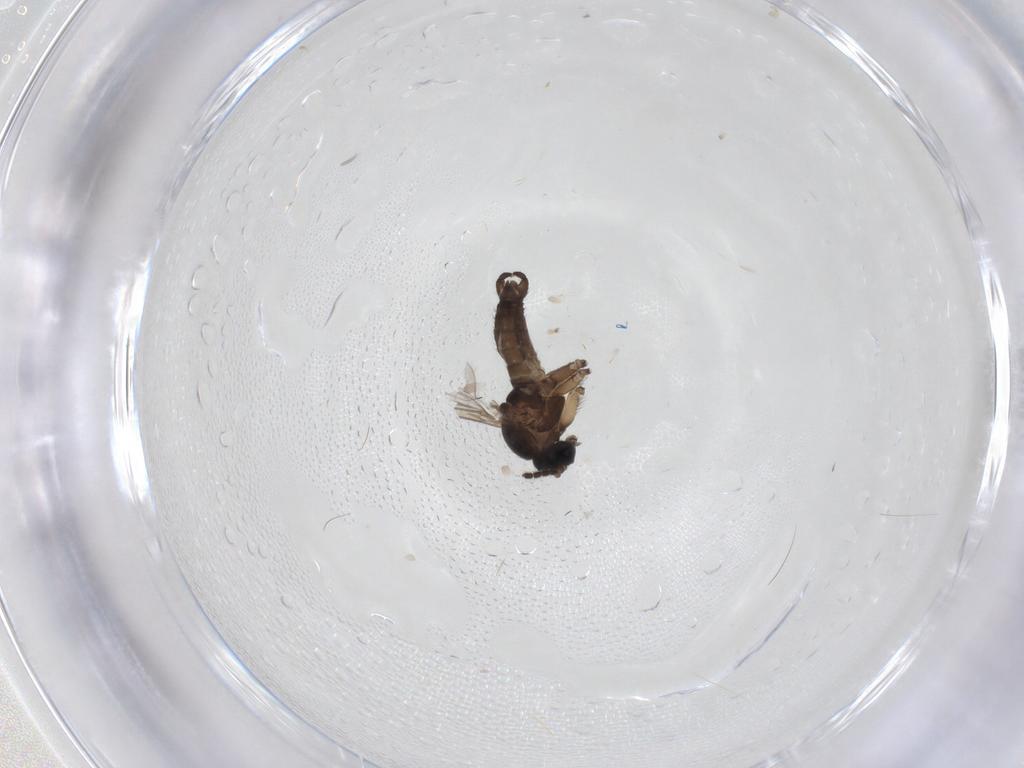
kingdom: Animalia
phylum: Arthropoda
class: Insecta
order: Diptera
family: Sciaridae
